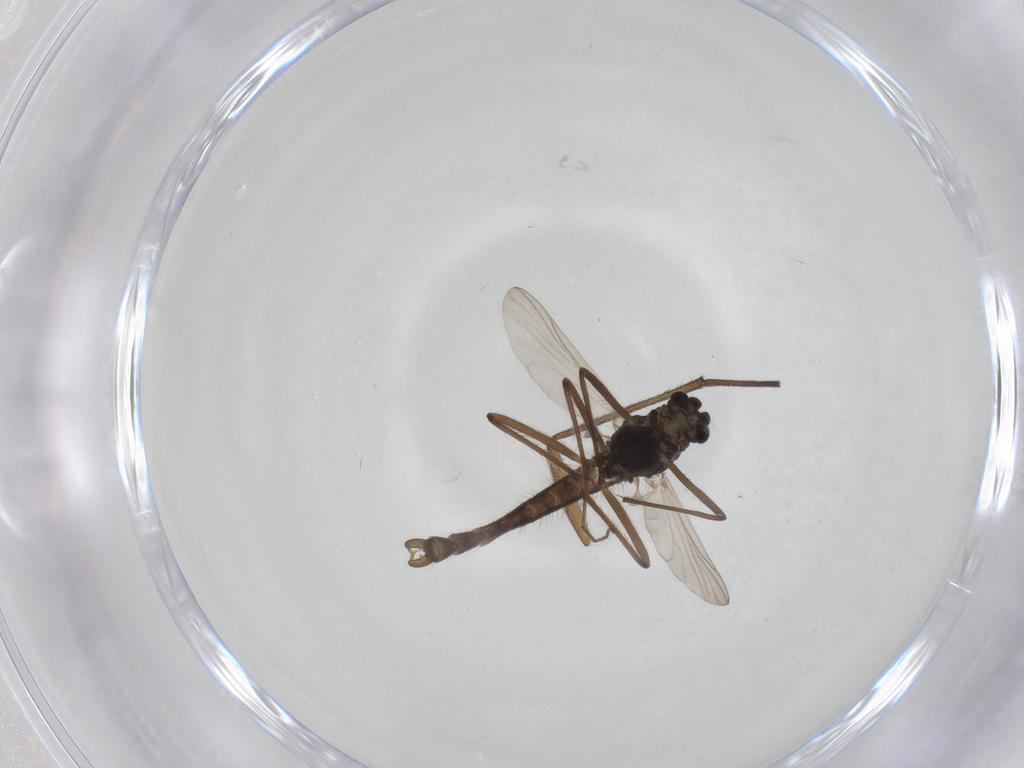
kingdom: Animalia
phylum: Arthropoda
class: Insecta
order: Diptera
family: Chironomidae
